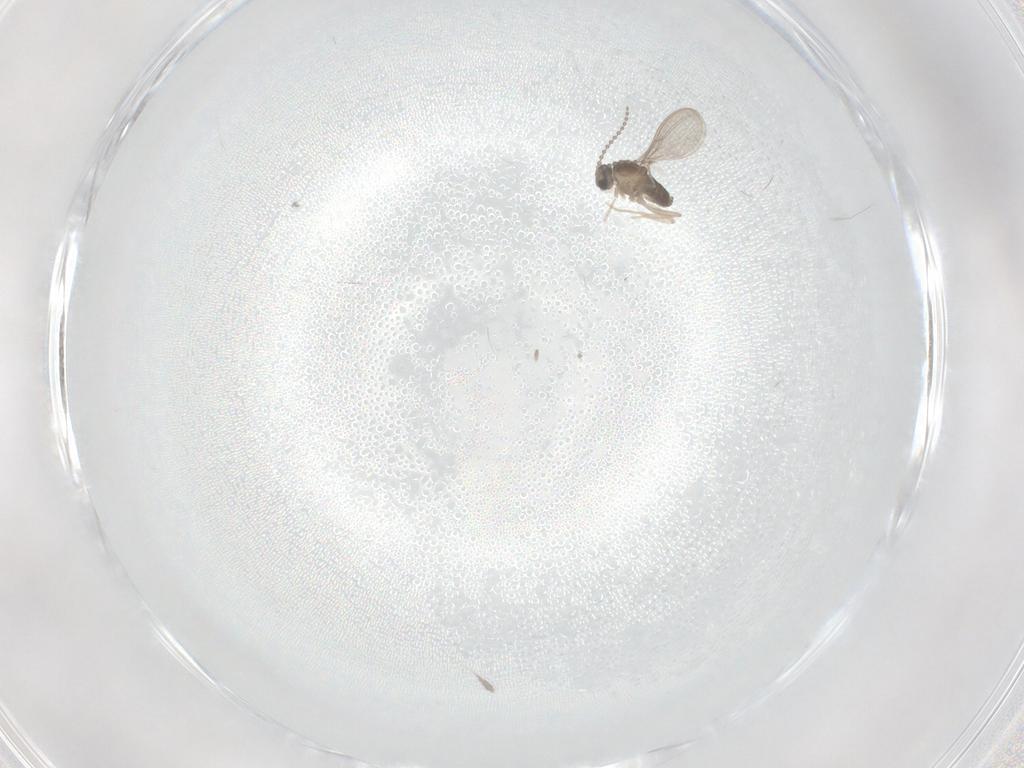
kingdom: Animalia
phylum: Arthropoda
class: Insecta
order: Diptera
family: Cecidomyiidae
